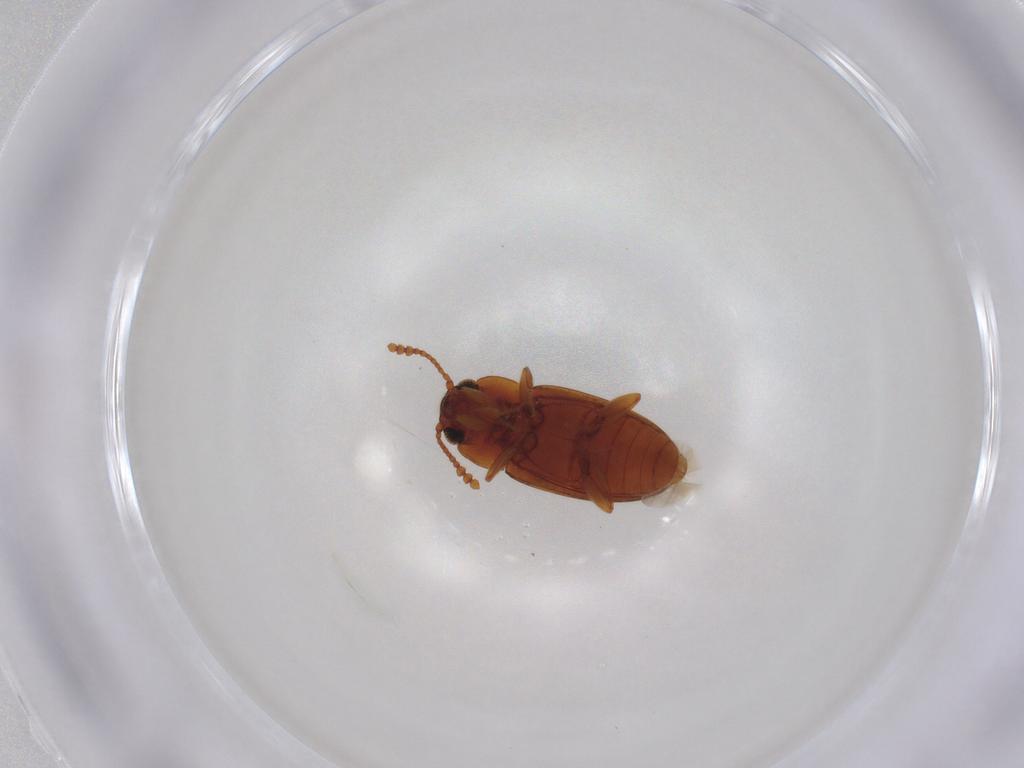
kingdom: Animalia
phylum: Arthropoda
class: Insecta
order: Coleoptera
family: Erotylidae
